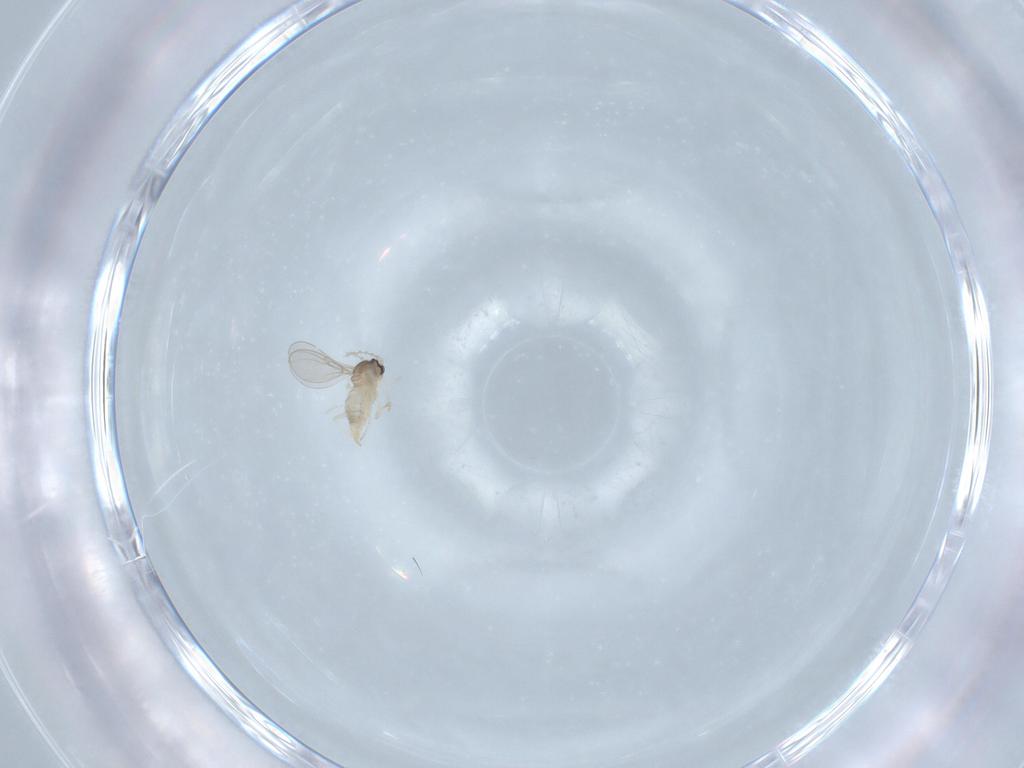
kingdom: Animalia
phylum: Arthropoda
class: Insecta
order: Diptera
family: Cecidomyiidae
